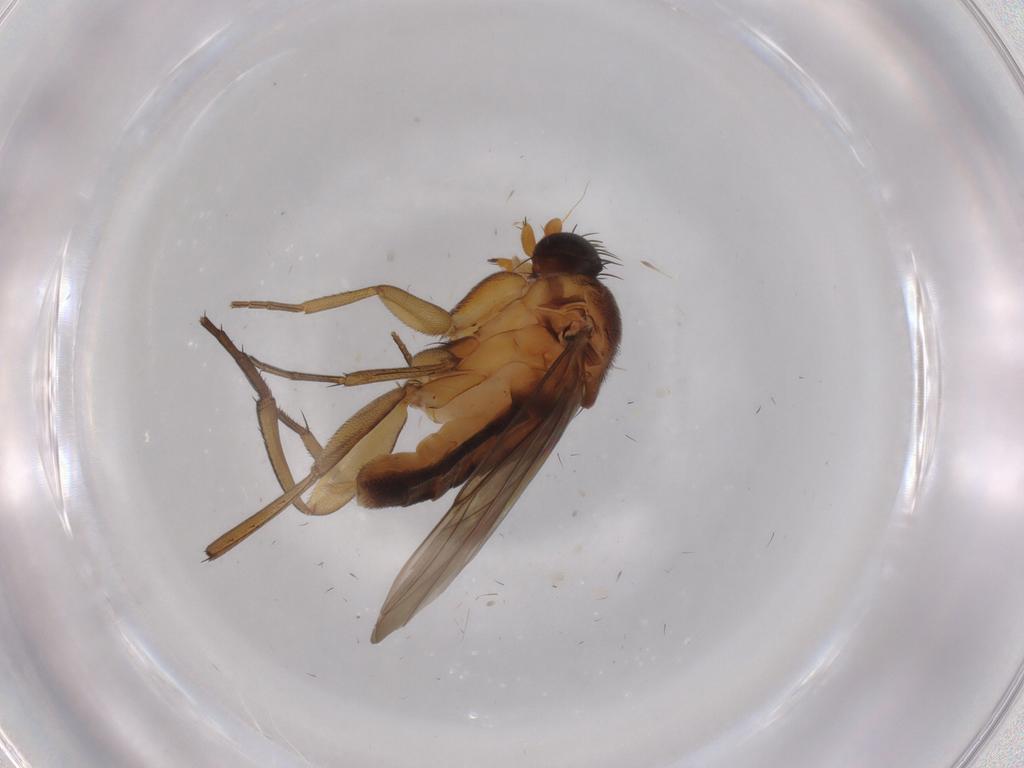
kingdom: Animalia
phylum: Arthropoda
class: Insecta
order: Diptera
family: Phoridae
